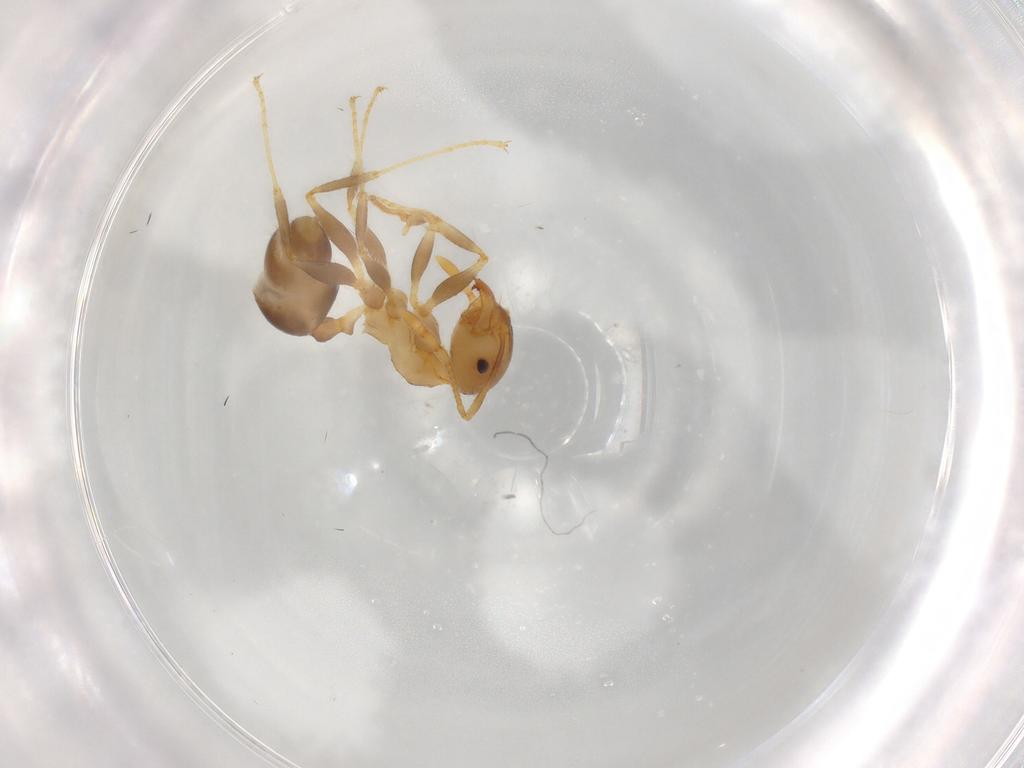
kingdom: Animalia
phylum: Arthropoda
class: Insecta
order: Hymenoptera
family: Formicidae
